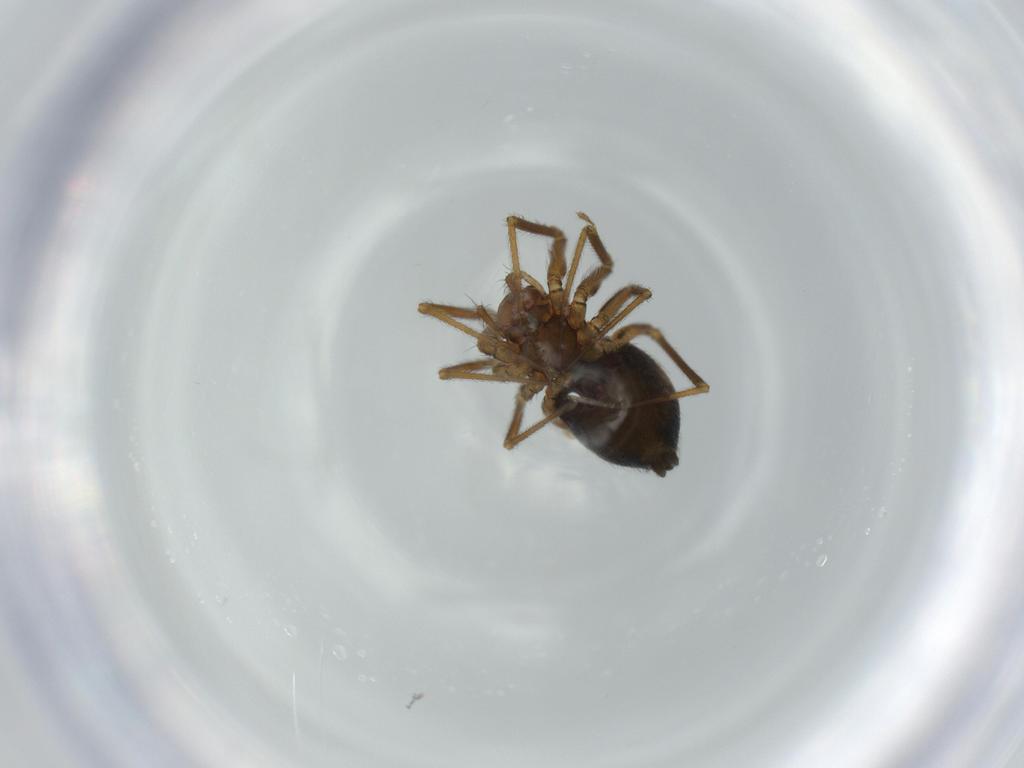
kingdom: Animalia
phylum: Arthropoda
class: Arachnida
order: Araneae
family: Linyphiidae
